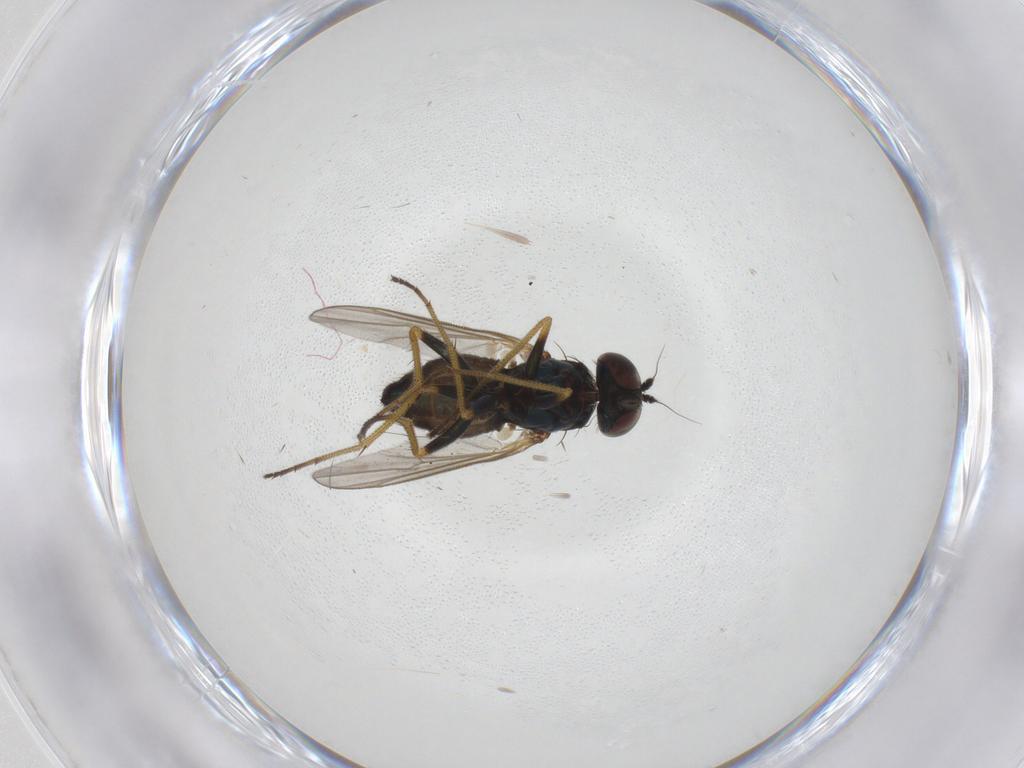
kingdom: Animalia
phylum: Arthropoda
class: Insecta
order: Diptera
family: Dolichopodidae
